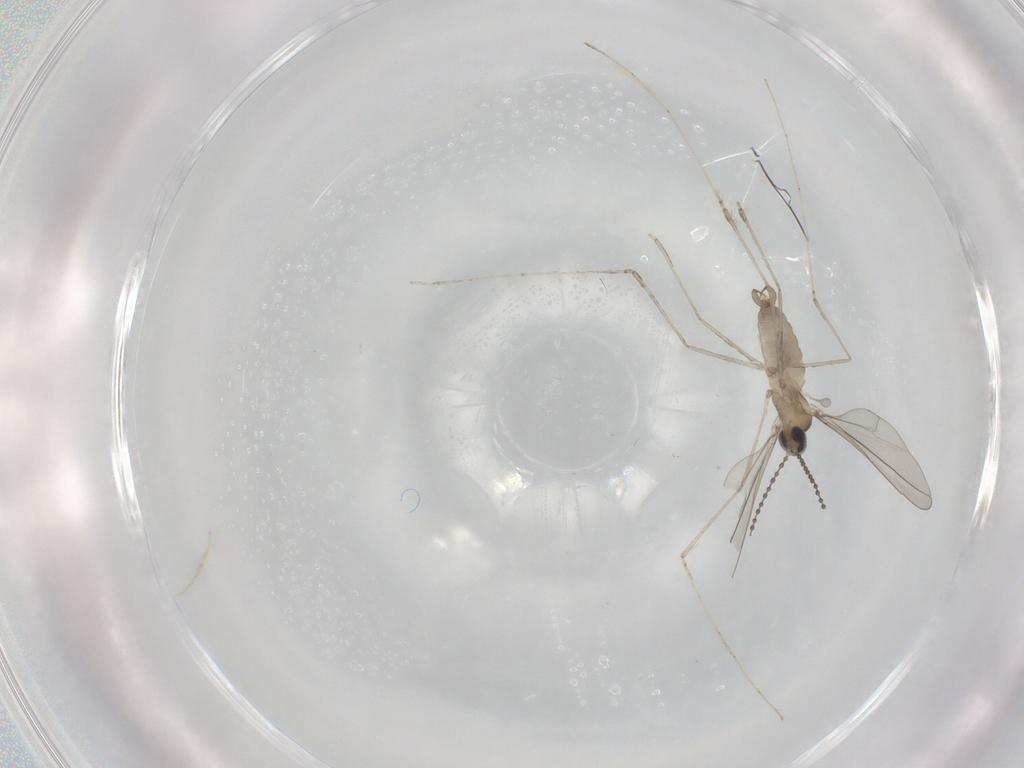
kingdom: Animalia
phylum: Arthropoda
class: Insecta
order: Diptera
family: Cecidomyiidae
